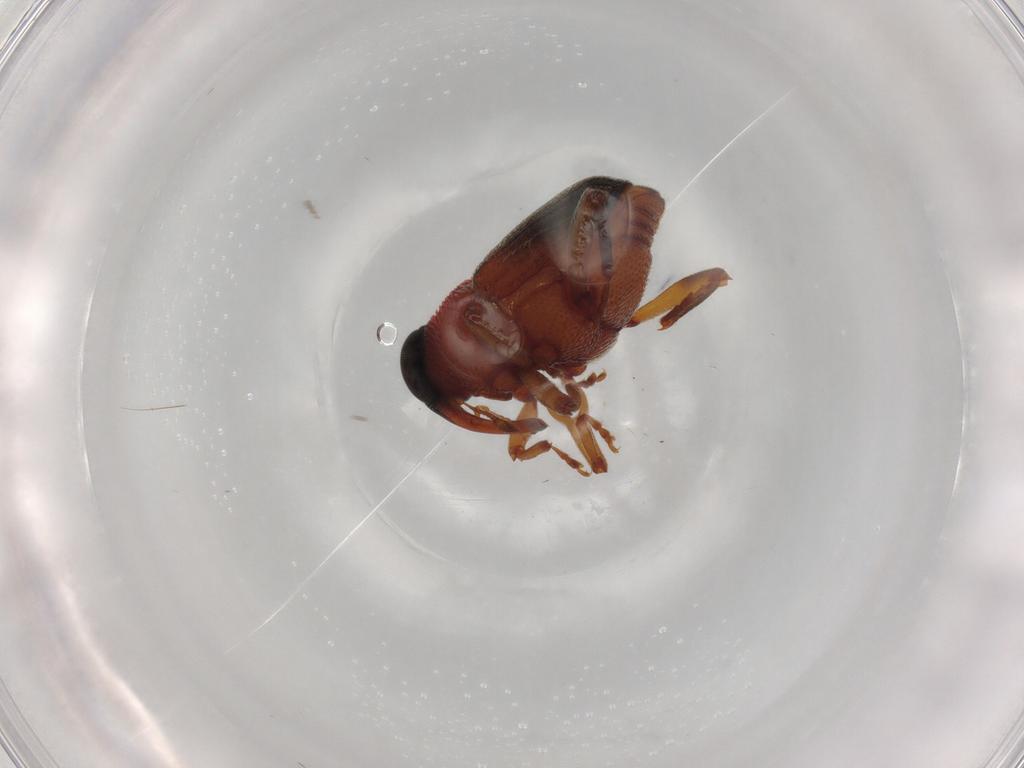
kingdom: Animalia
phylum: Arthropoda
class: Insecta
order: Coleoptera
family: Curculionidae
